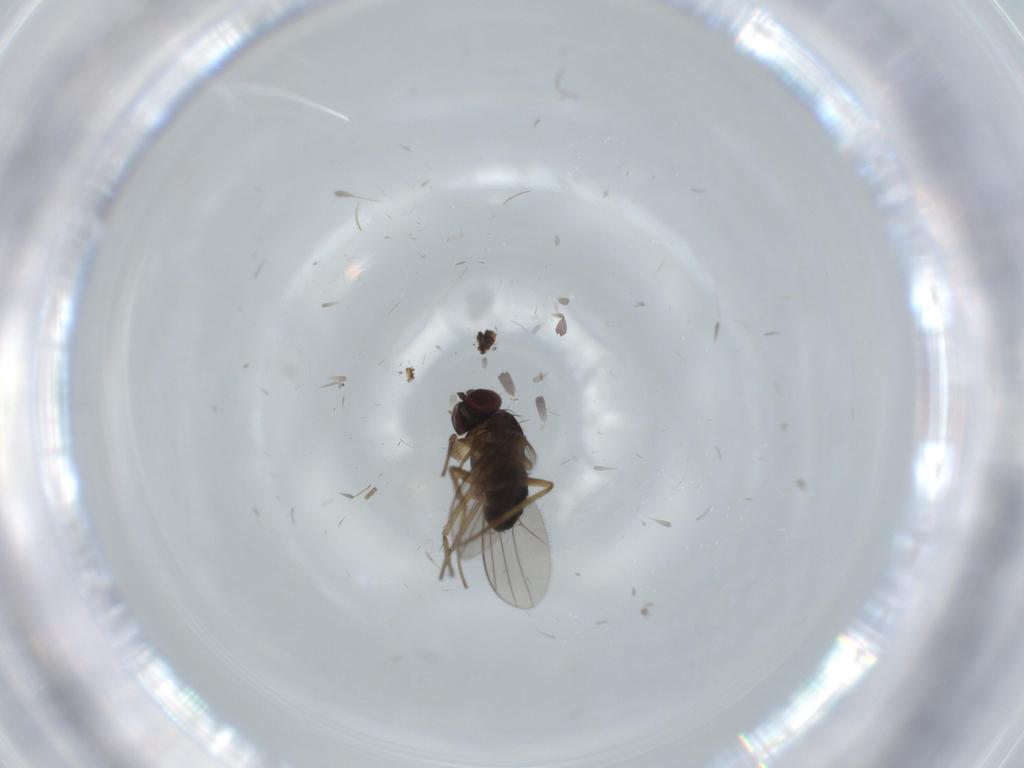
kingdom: Animalia
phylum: Arthropoda
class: Insecta
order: Diptera
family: Dolichopodidae
